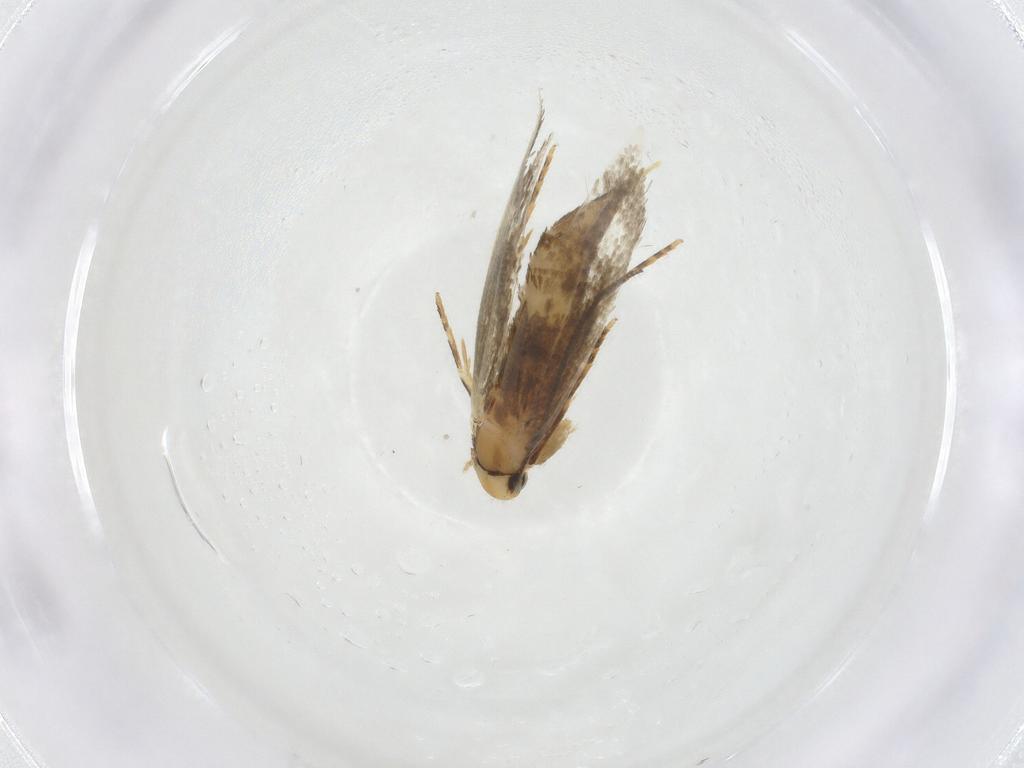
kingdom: Animalia
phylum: Arthropoda
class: Insecta
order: Lepidoptera
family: Tineidae
